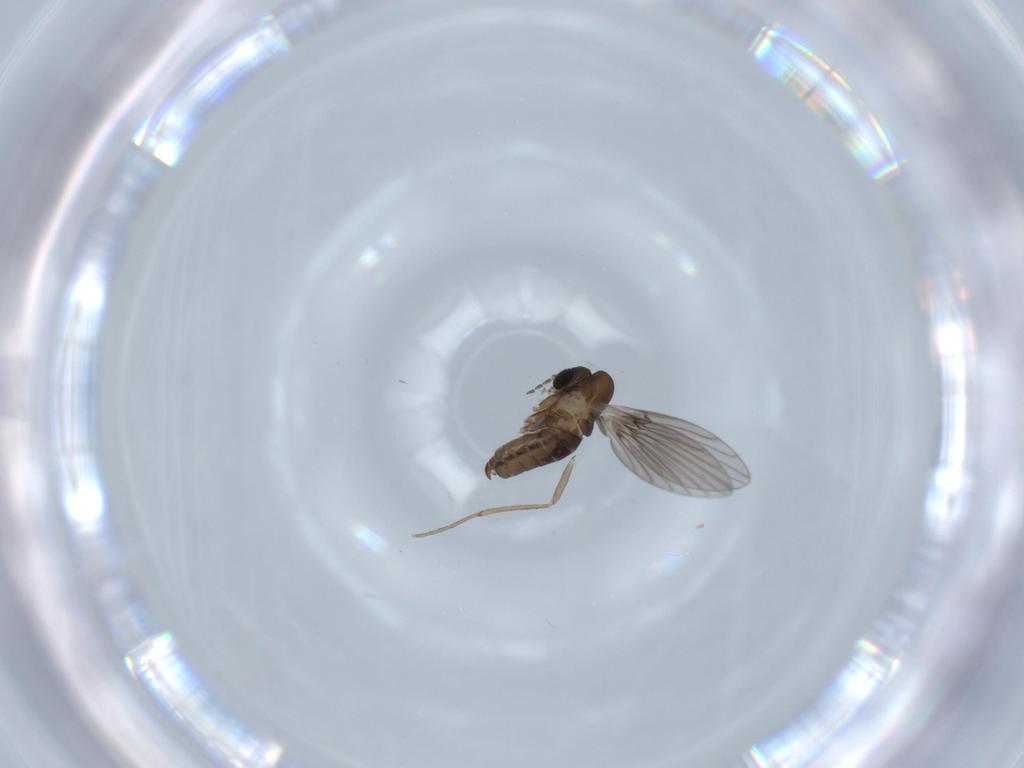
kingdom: Animalia
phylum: Arthropoda
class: Insecta
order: Diptera
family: Psychodidae
